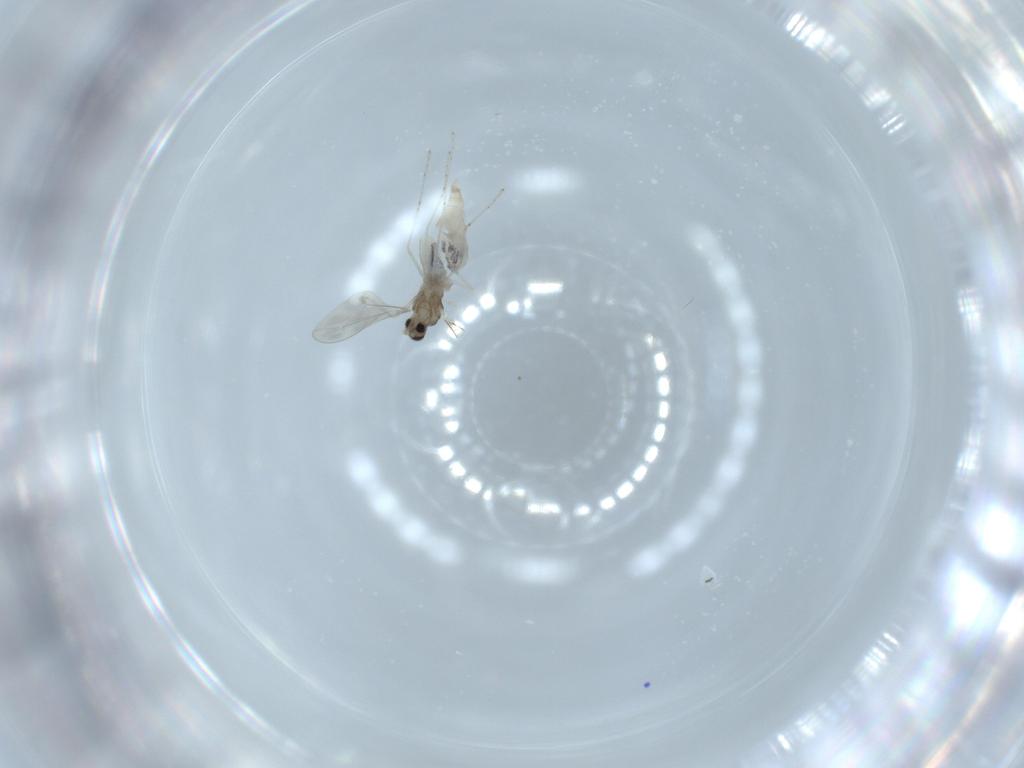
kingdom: Animalia
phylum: Arthropoda
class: Insecta
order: Diptera
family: Cecidomyiidae
